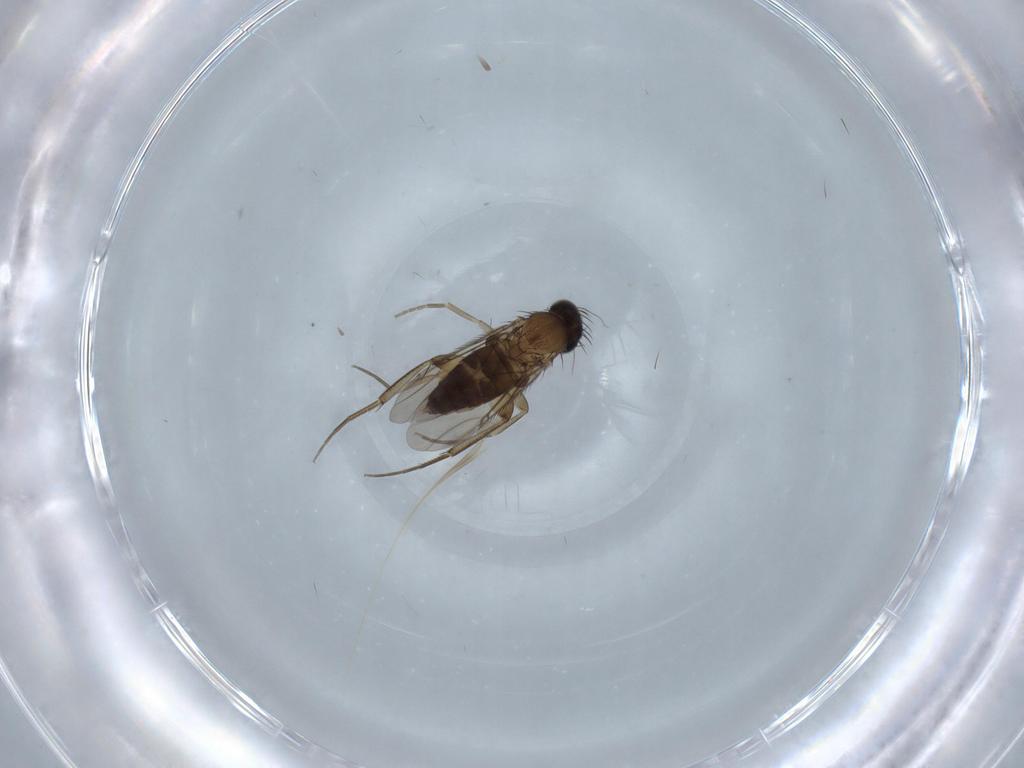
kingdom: Animalia
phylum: Arthropoda
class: Insecta
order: Diptera
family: Phoridae
